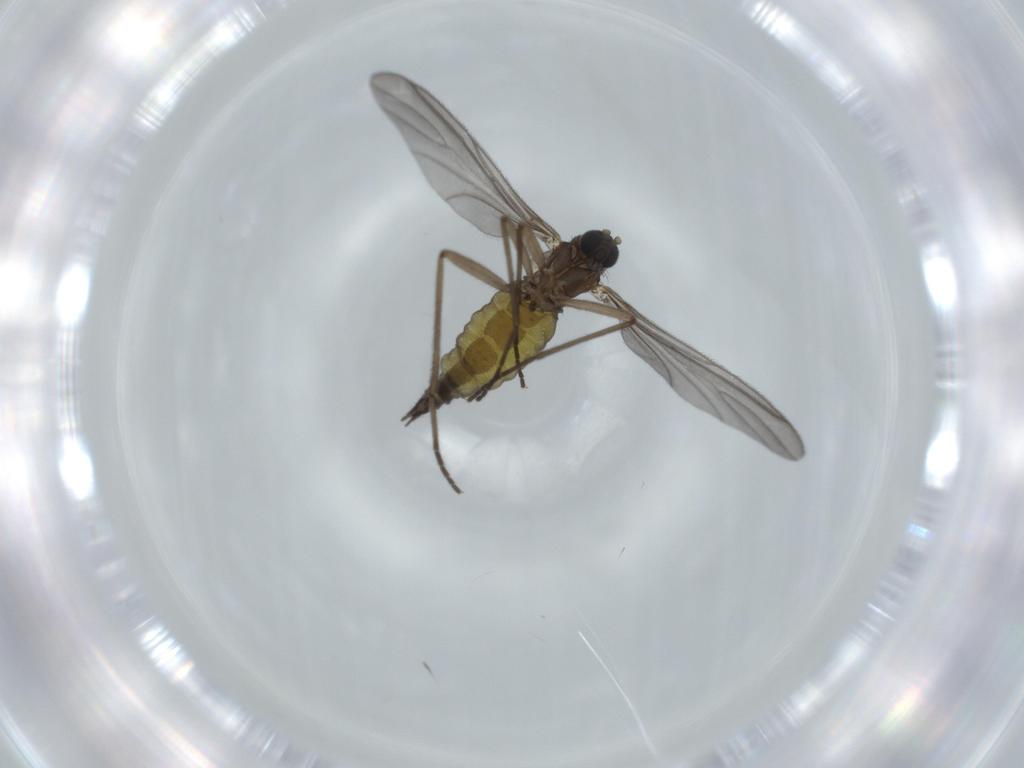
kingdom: Animalia
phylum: Arthropoda
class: Insecta
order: Diptera
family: Sciaridae
